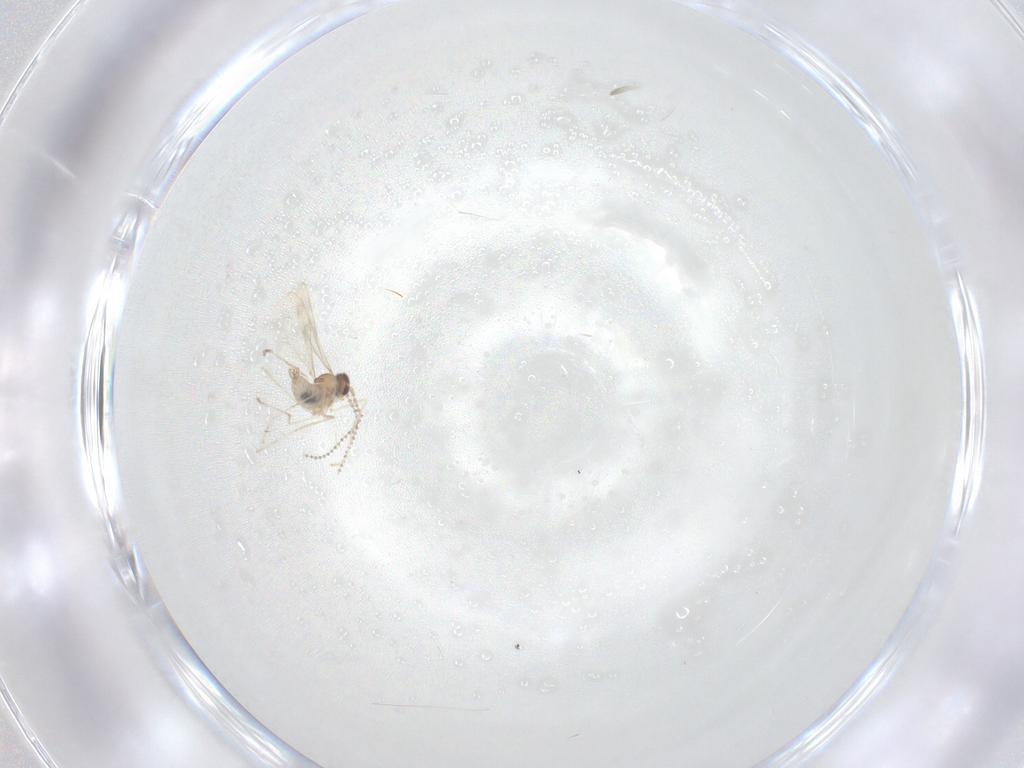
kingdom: Animalia
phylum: Arthropoda
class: Insecta
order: Diptera
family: Cecidomyiidae
